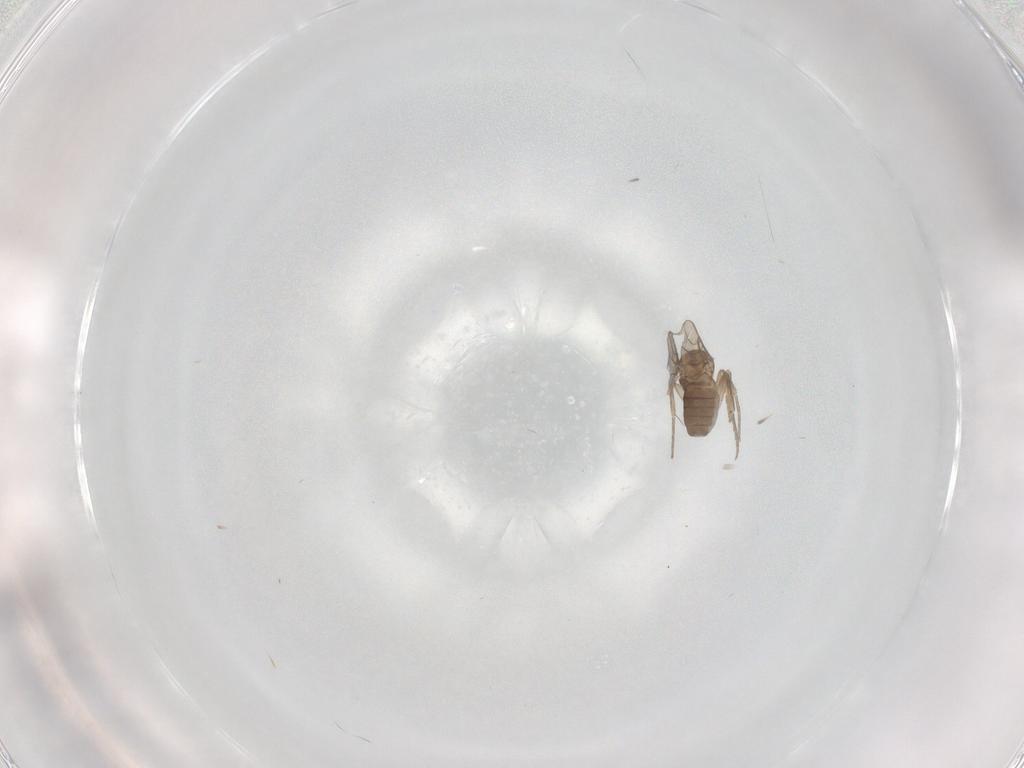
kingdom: Animalia
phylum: Arthropoda
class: Insecta
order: Diptera
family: Phoridae
